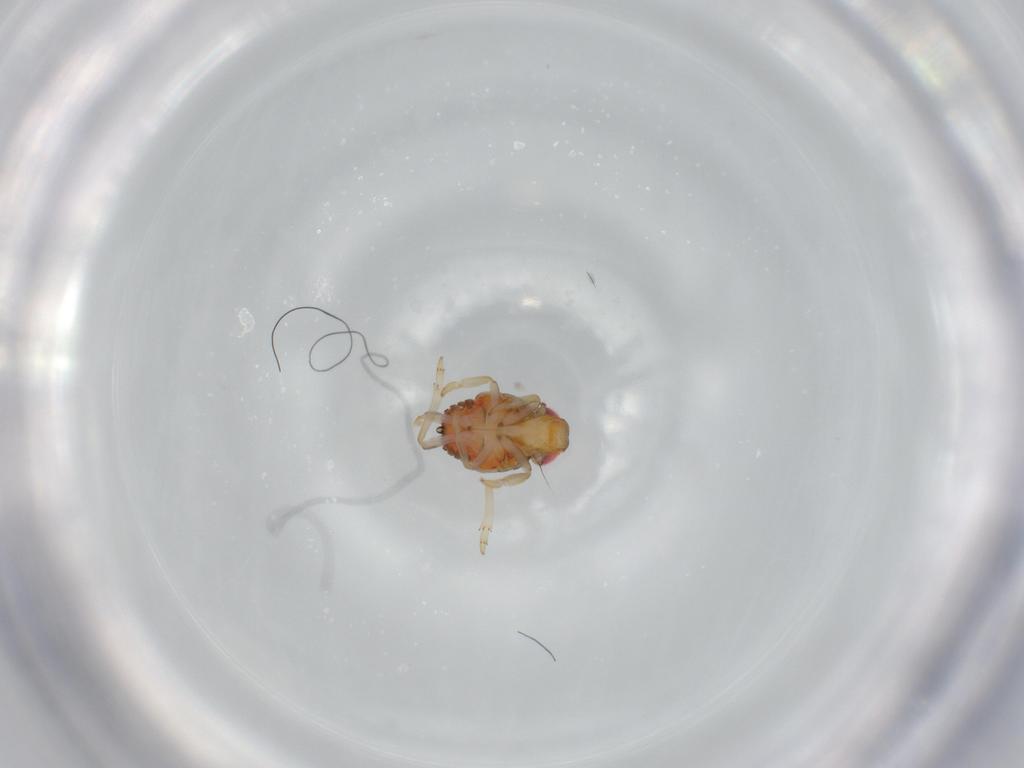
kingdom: Animalia
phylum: Arthropoda
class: Insecta
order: Hemiptera
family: Issidae
